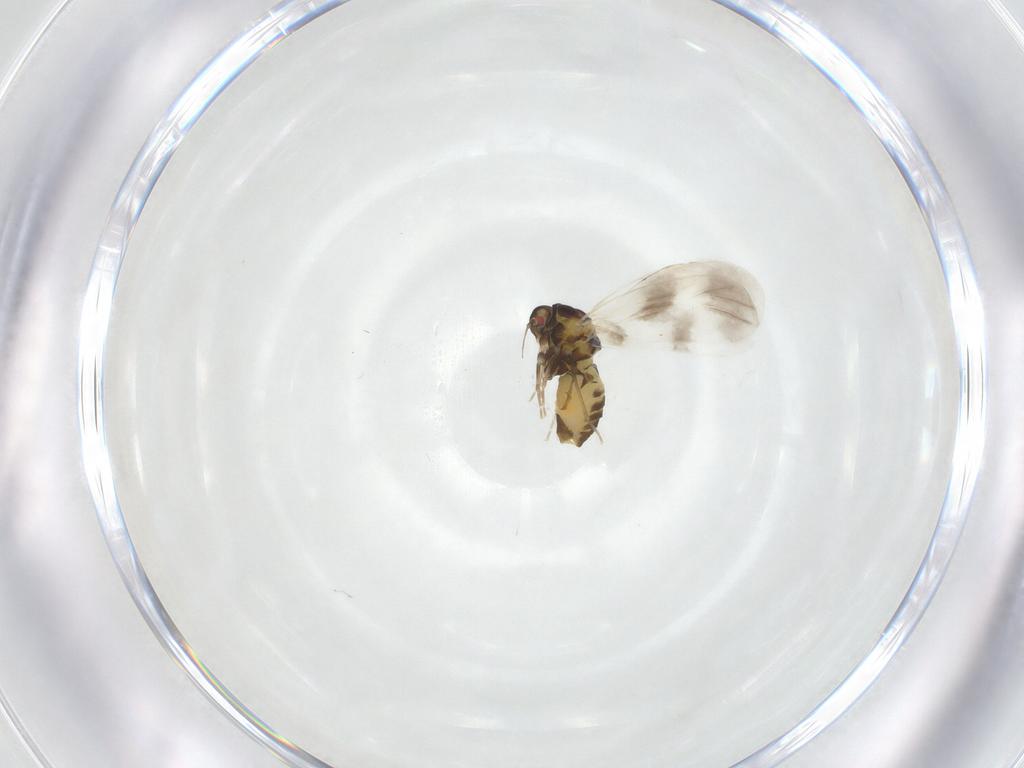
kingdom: Animalia
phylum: Arthropoda
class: Insecta
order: Hemiptera
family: Aleyrodidae
